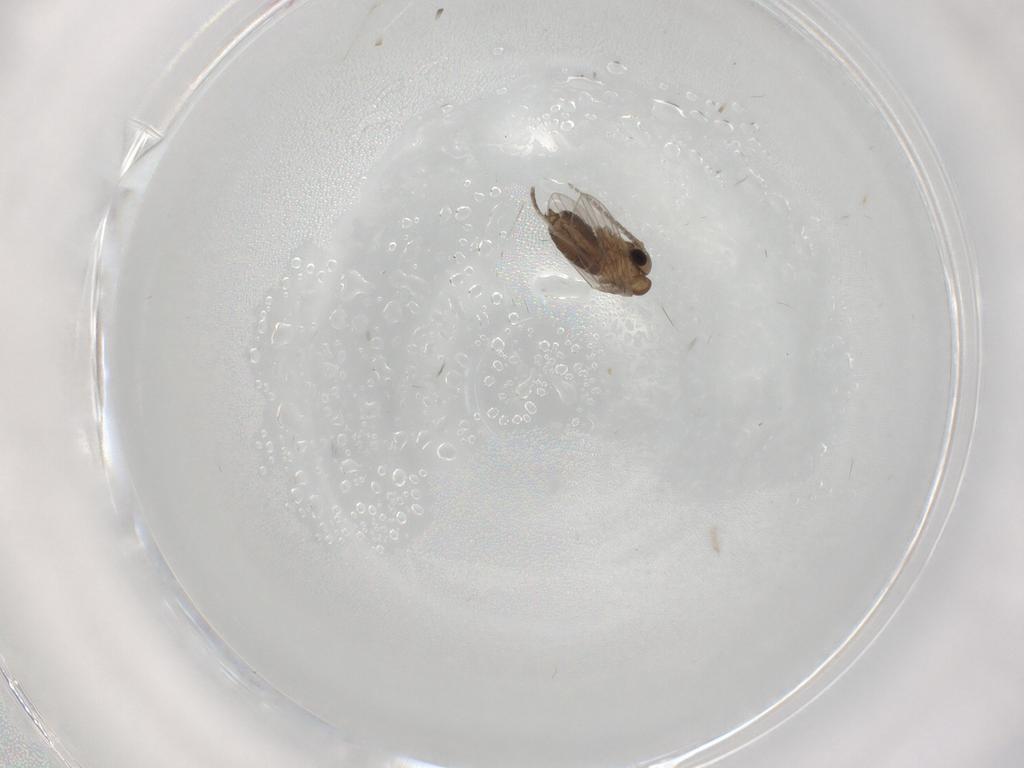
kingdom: Animalia
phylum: Arthropoda
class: Insecta
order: Diptera
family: Cecidomyiidae
